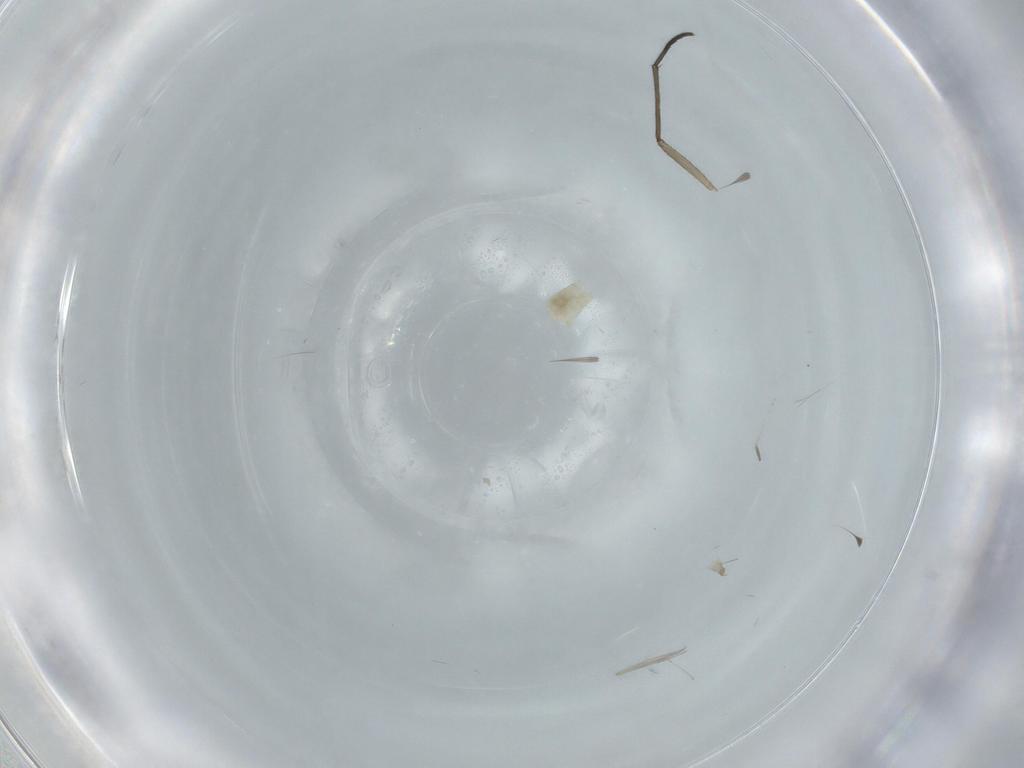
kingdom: Animalia
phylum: Arthropoda
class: Insecta
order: Diptera
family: Cecidomyiidae
